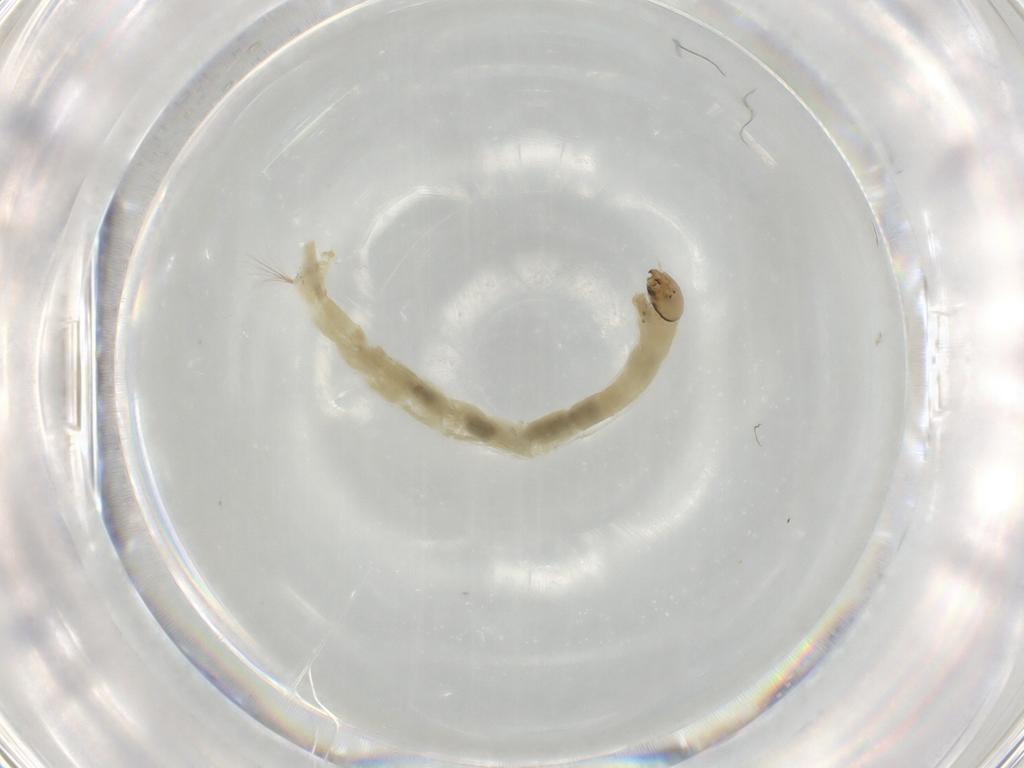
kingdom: Animalia
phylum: Arthropoda
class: Insecta
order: Diptera
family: Chironomidae
